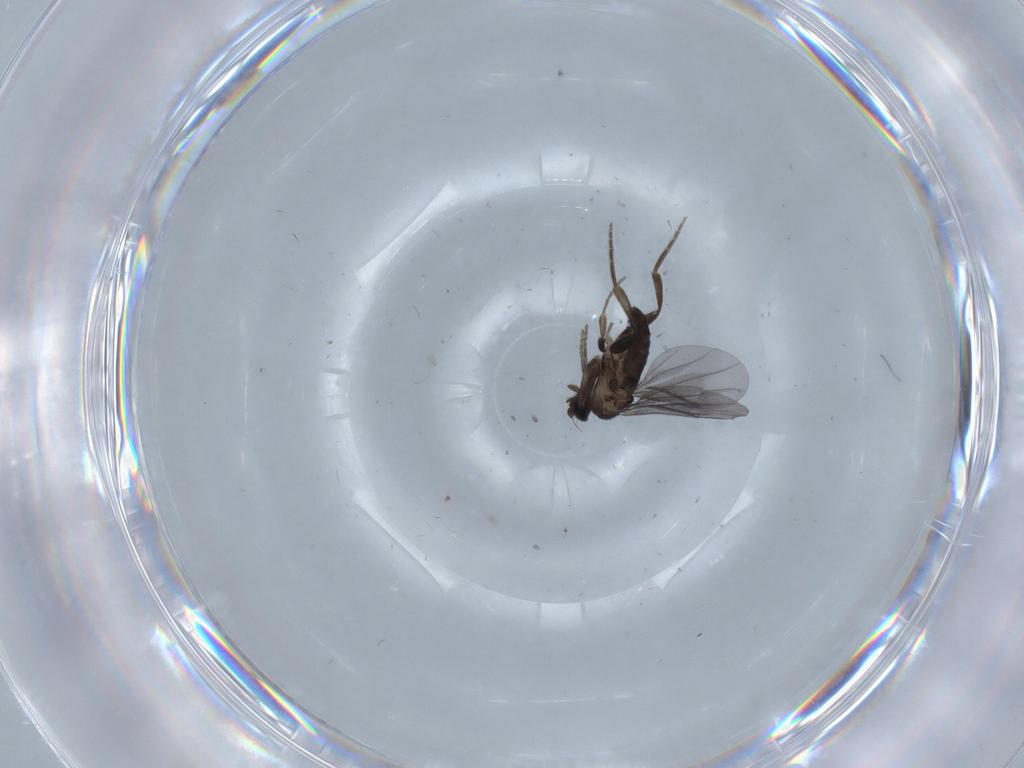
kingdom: Animalia
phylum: Arthropoda
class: Insecta
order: Diptera
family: Phoridae
